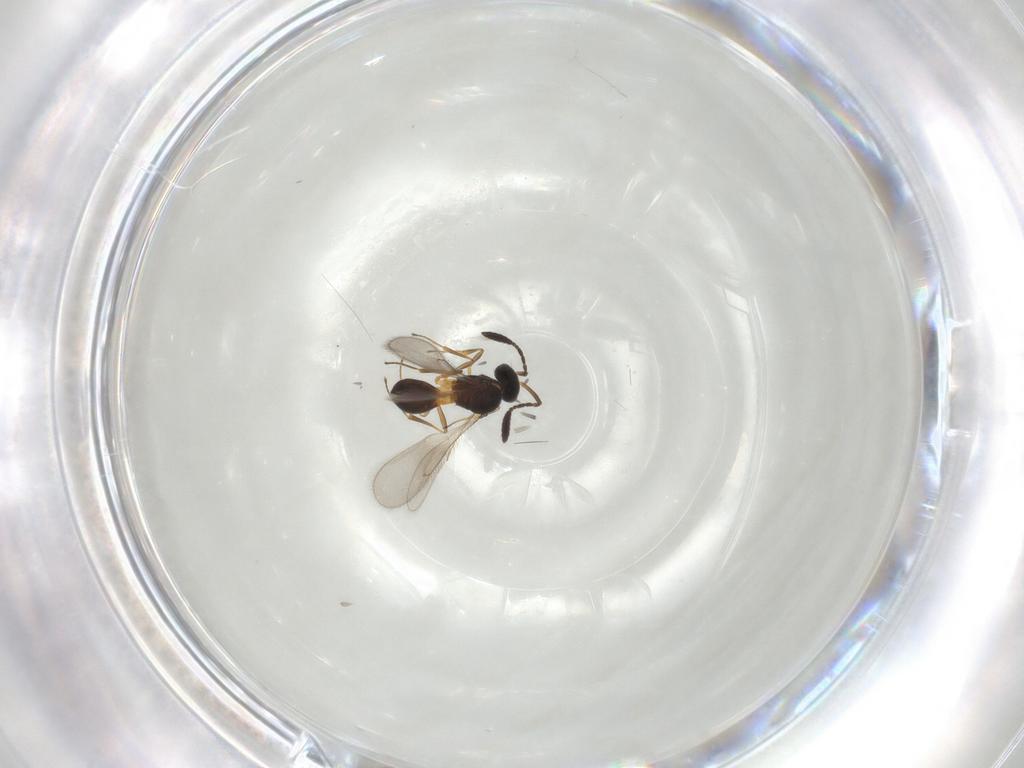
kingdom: Animalia
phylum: Arthropoda
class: Insecta
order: Hymenoptera
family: Scelionidae
